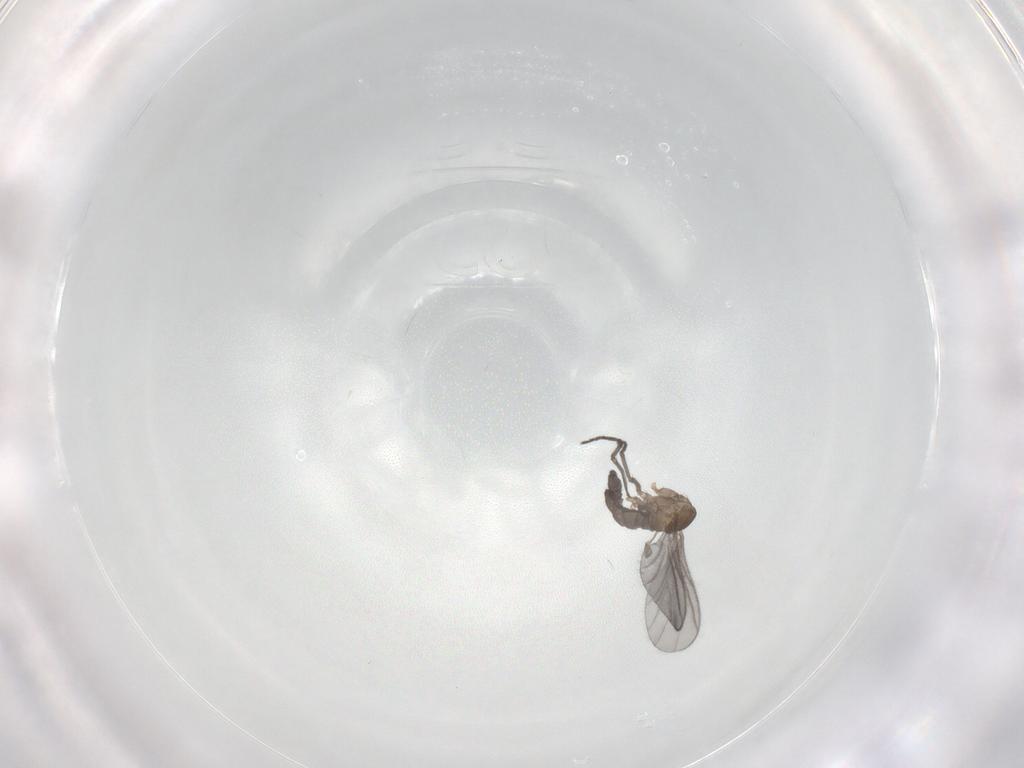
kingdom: Animalia
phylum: Arthropoda
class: Insecta
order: Diptera
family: Sciaridae
